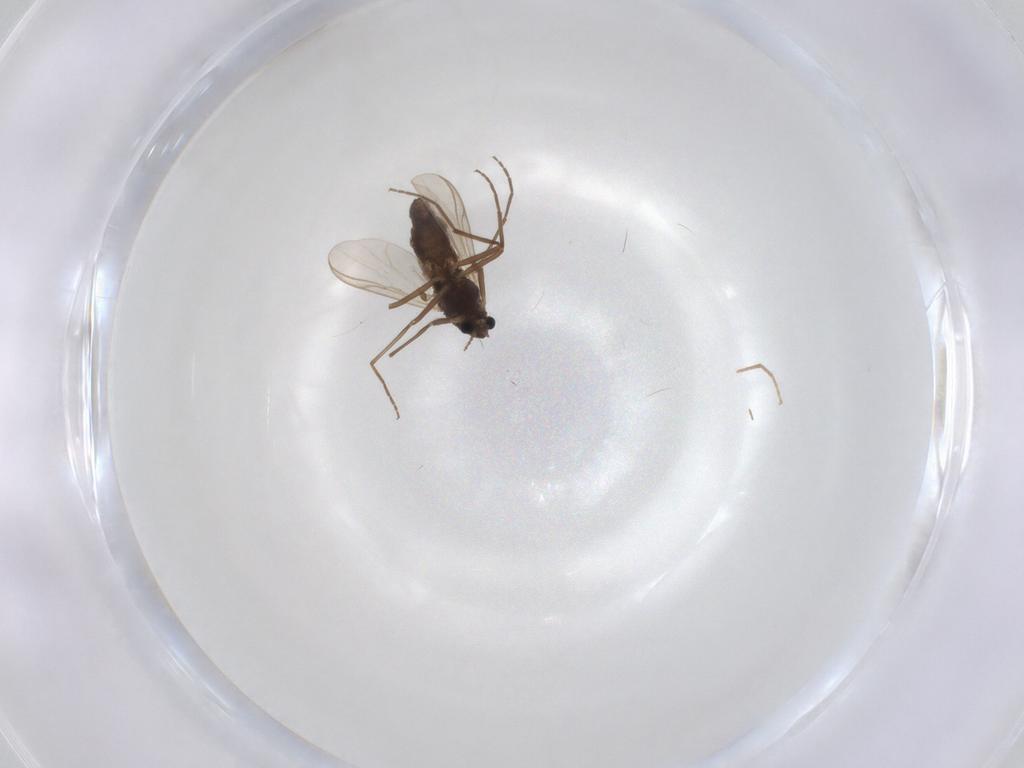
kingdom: Animalia
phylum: Arthropoda
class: Insecta
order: Diptera
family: Chironomidae
